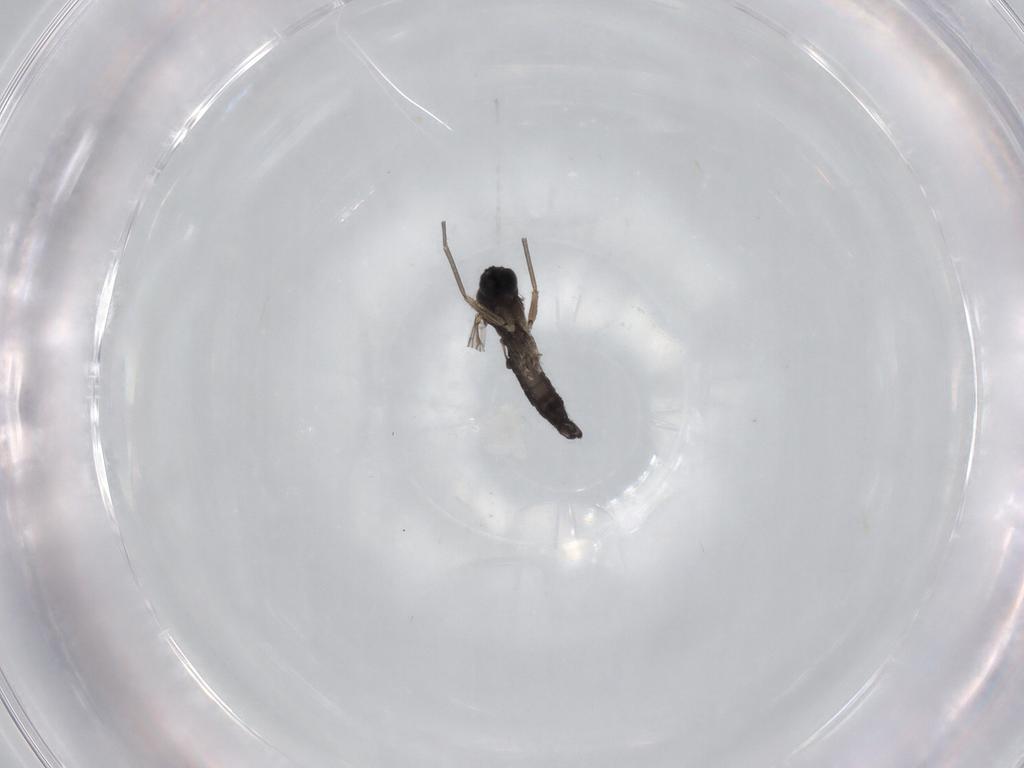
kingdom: Animalia
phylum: Arthropoda
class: Insecta
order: Diptera
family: Sciaridae
